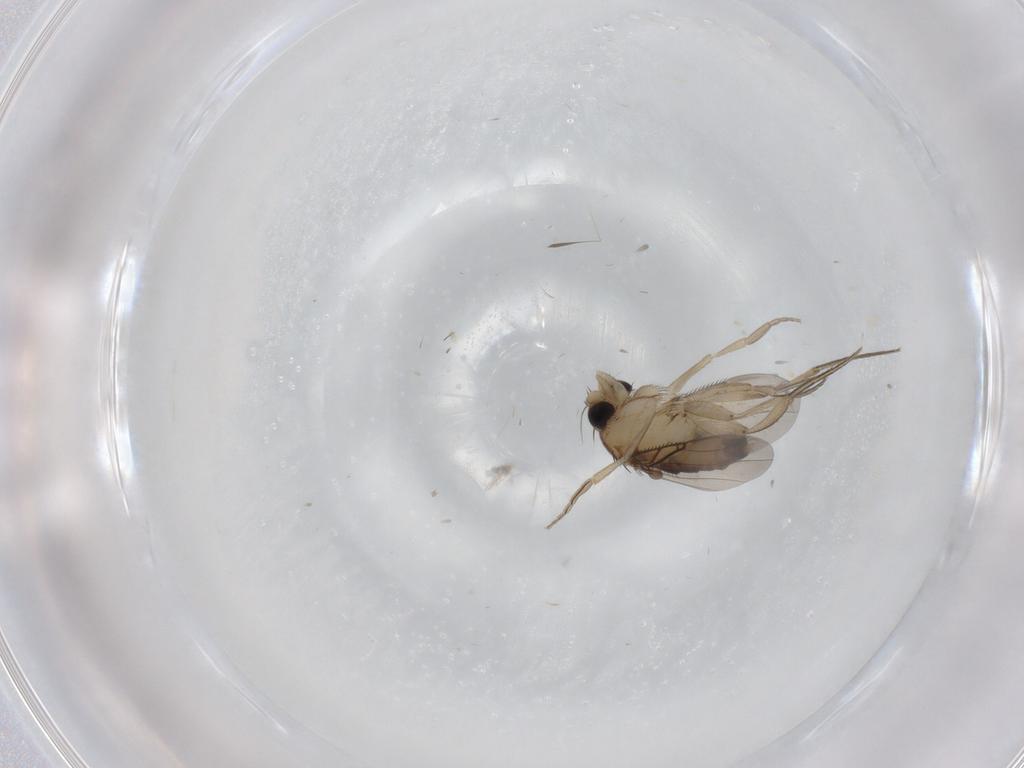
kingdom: Animalia
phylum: Arthropoda
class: Insecta
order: Diptera
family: Phoridae
